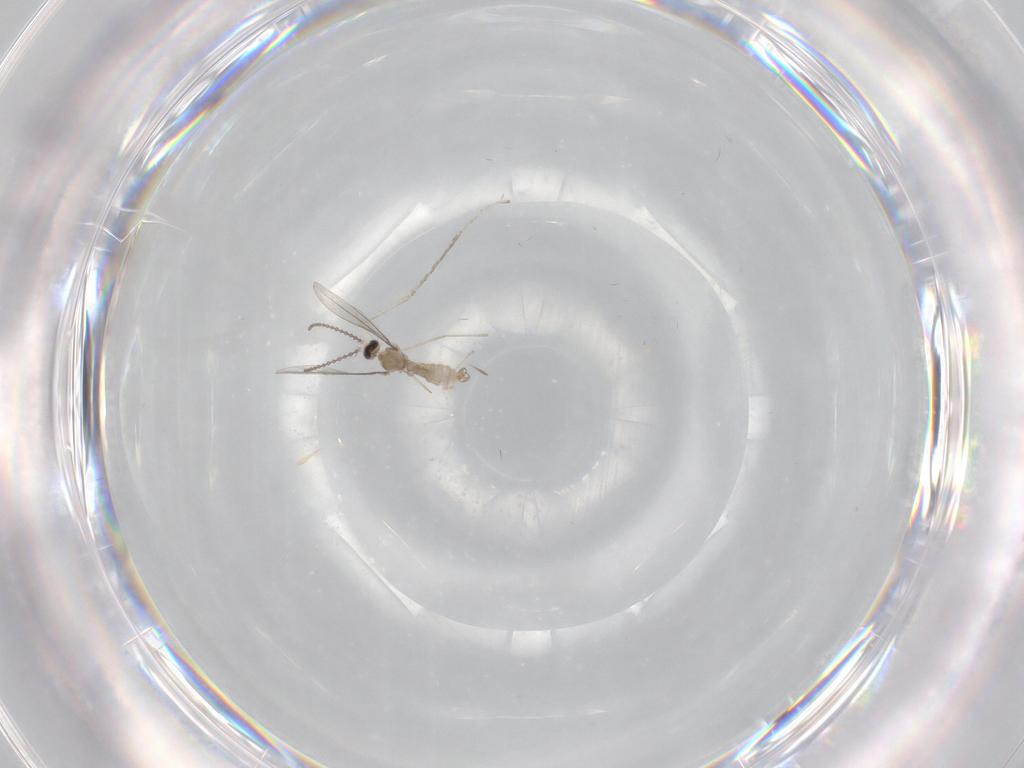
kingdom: Animalia
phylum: Arthropoda
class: Insecta
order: Diptera
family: Cecidomyiidae
